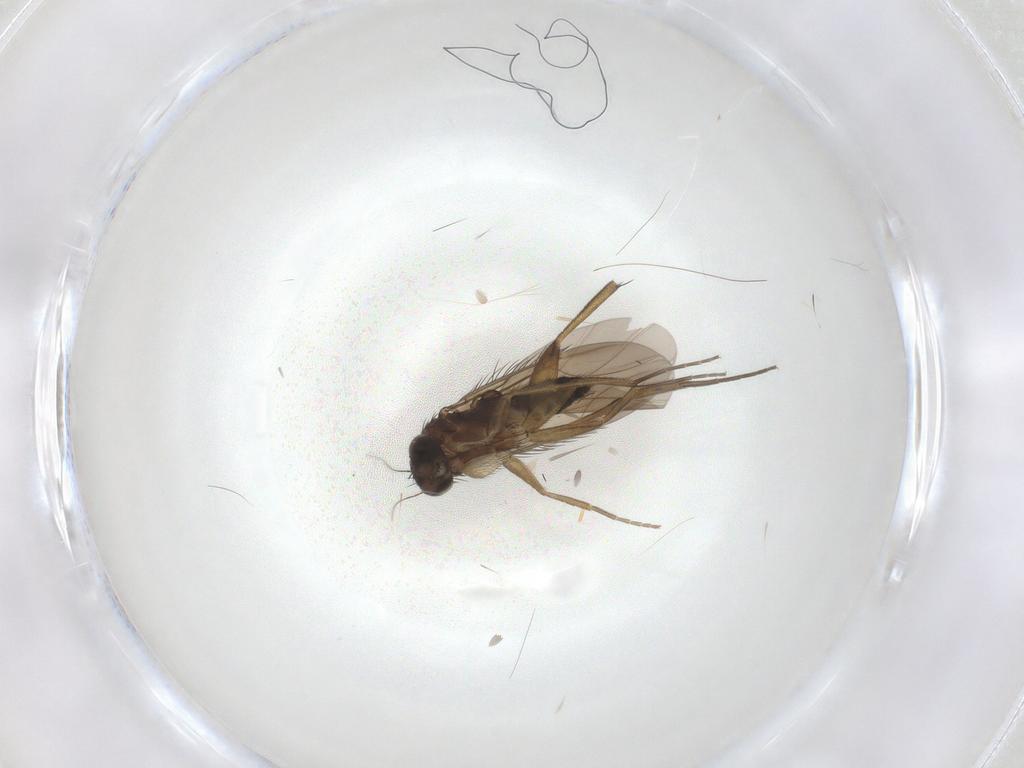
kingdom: Animalia
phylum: Arthropoda
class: Insecta
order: Diptera
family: Phoridae
